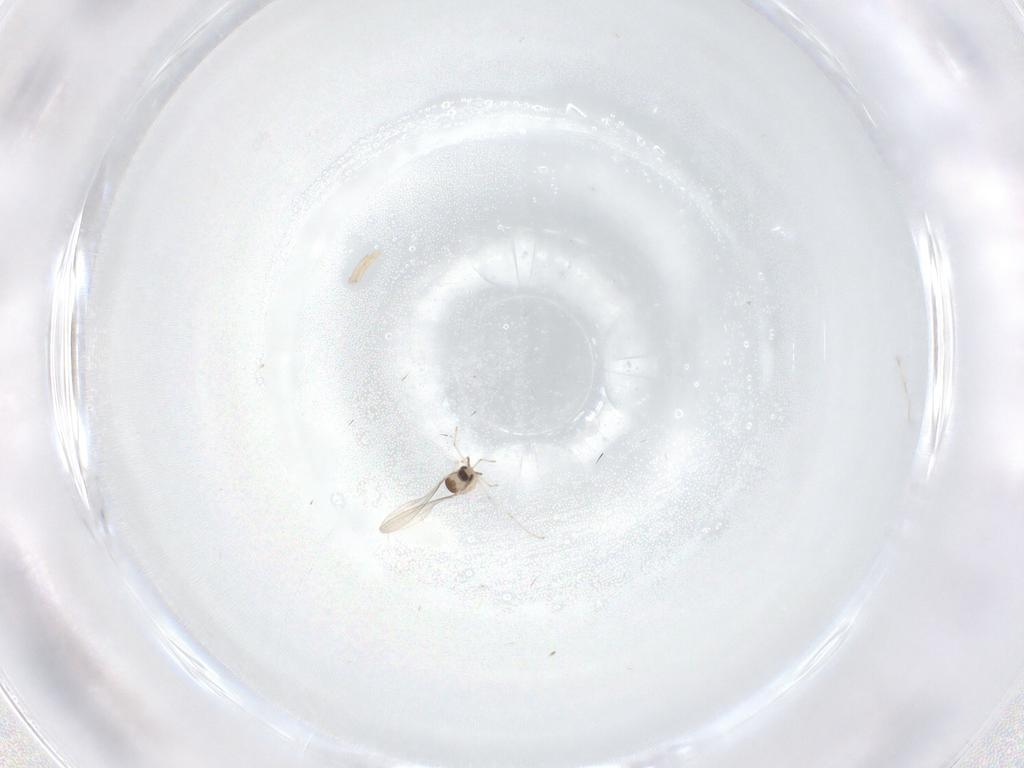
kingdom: Animalia
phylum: Arthropoda
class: Insecta
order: Diptera
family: Cecidomyiidae
